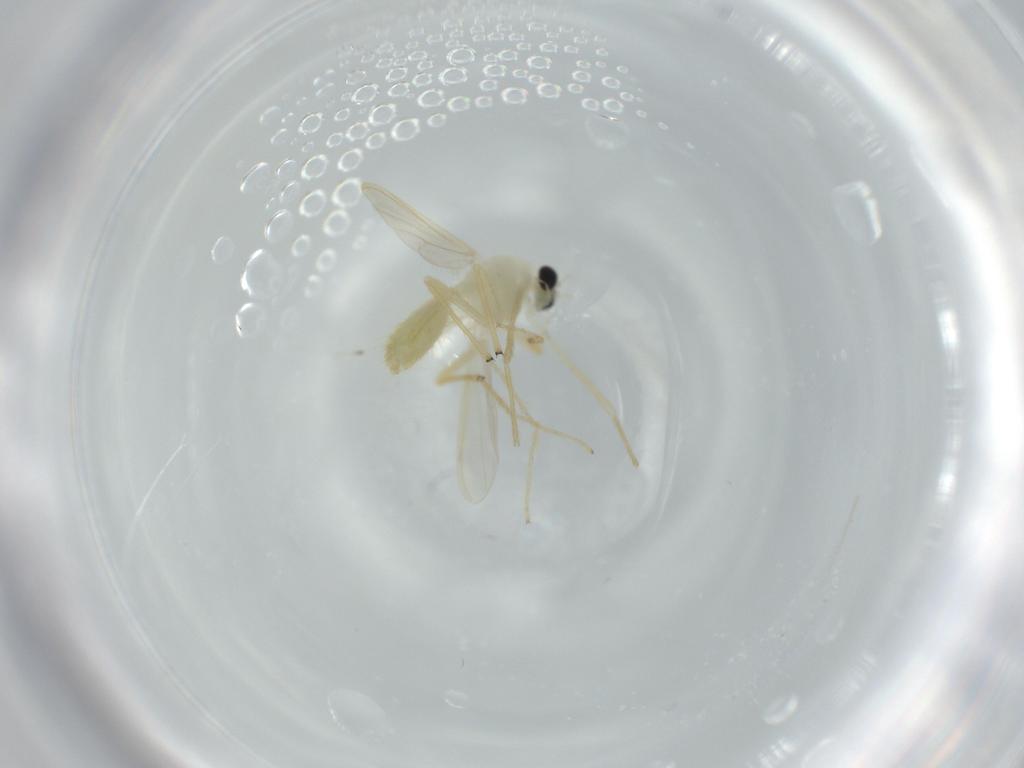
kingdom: Animalia
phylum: Arthropoda
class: Insecta
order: Diptera
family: Chironomidae
